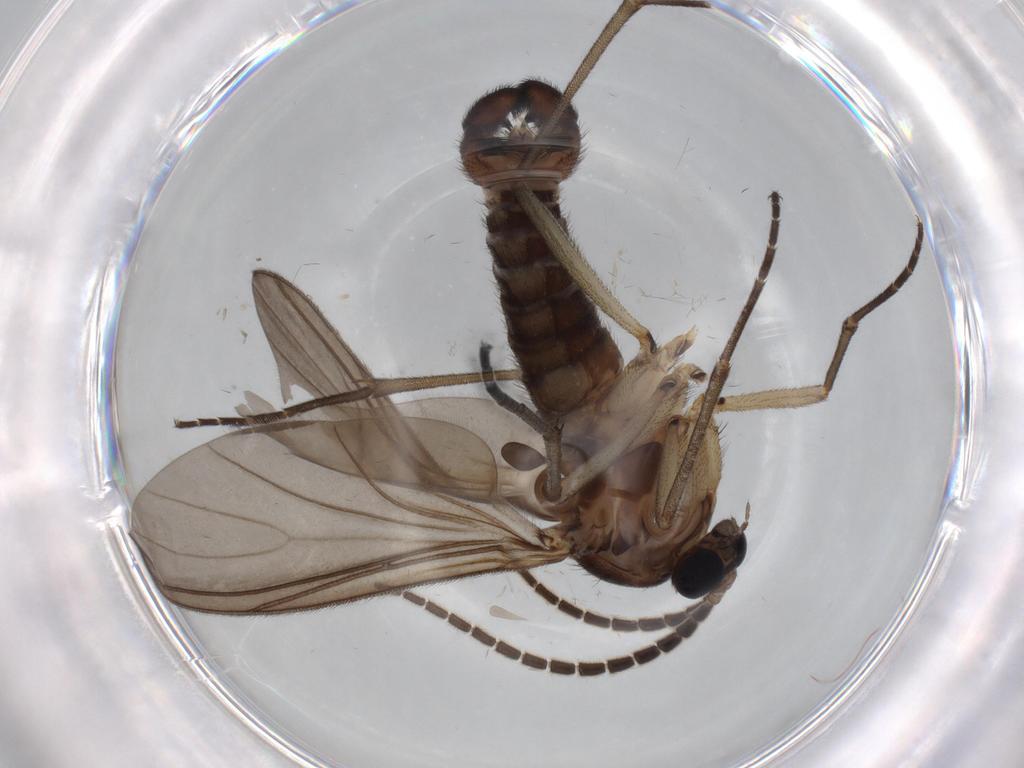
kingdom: Animalia
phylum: Arthropoda
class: Insecta
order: Diptera
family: Sciaridae
